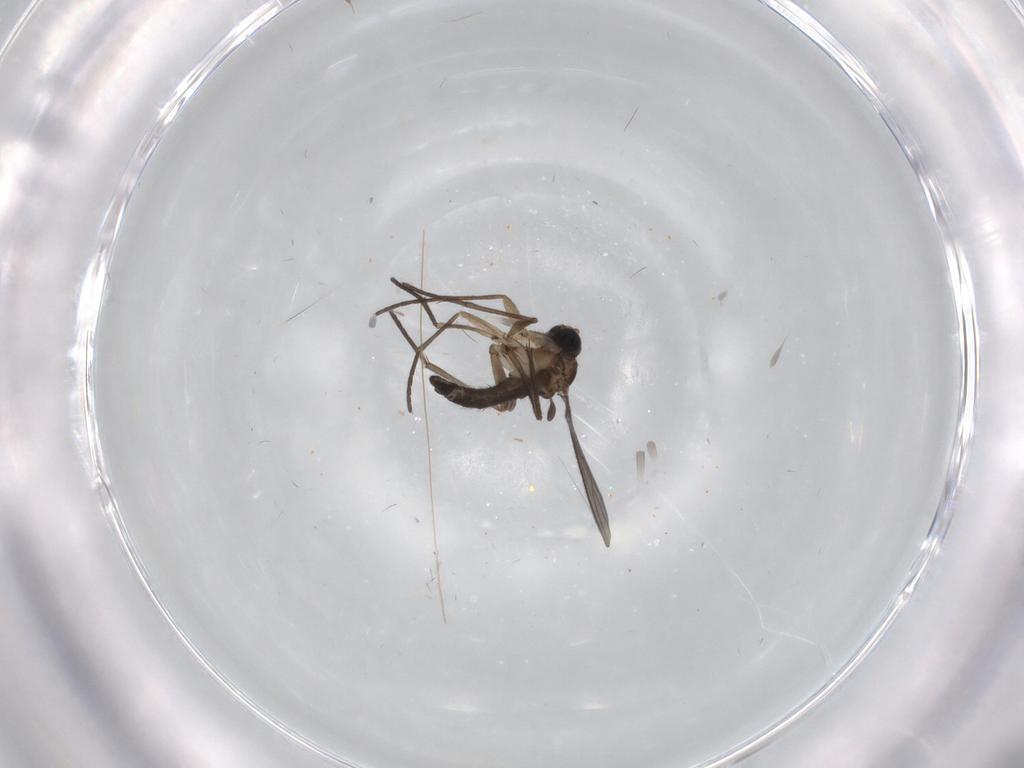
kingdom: Animalia
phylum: Arthropoda
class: Insecta
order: Diptera
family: Sciaridae
